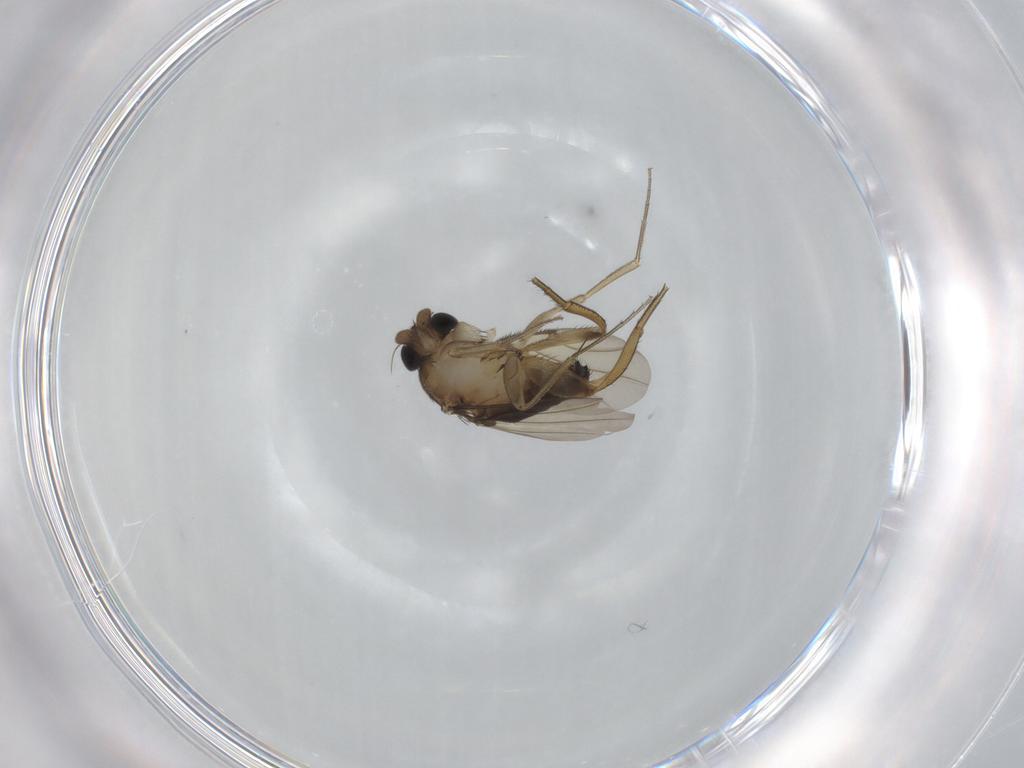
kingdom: Animalia
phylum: Arthropoda
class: Insecta
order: Diptera
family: Phoridae
